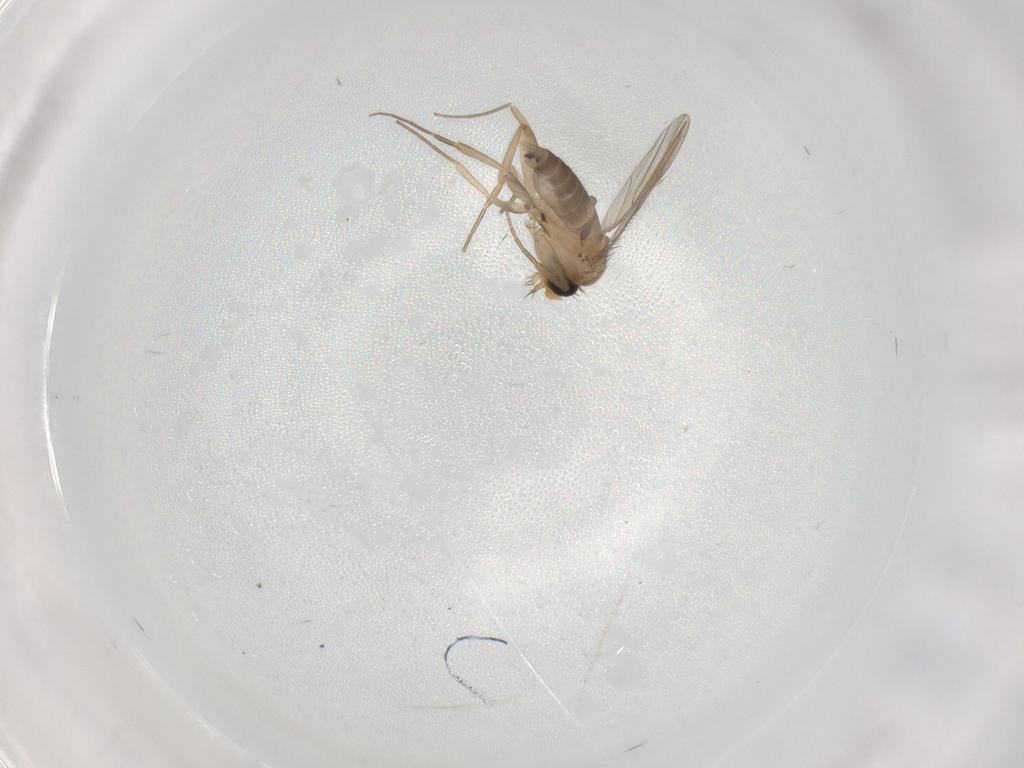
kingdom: Animalia
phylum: Arthropoda
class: Insecta
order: Diptera
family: Phoridae
